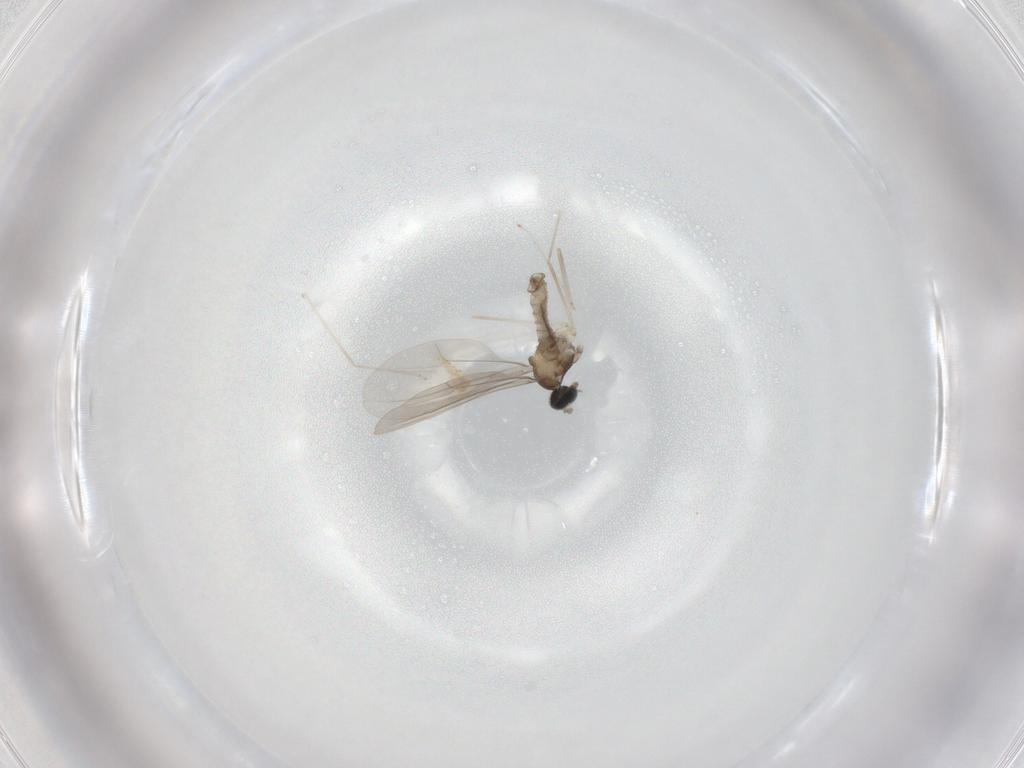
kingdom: Animalia
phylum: Arthropoda
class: Insecta
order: Diptera
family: Cecidomyiidae
